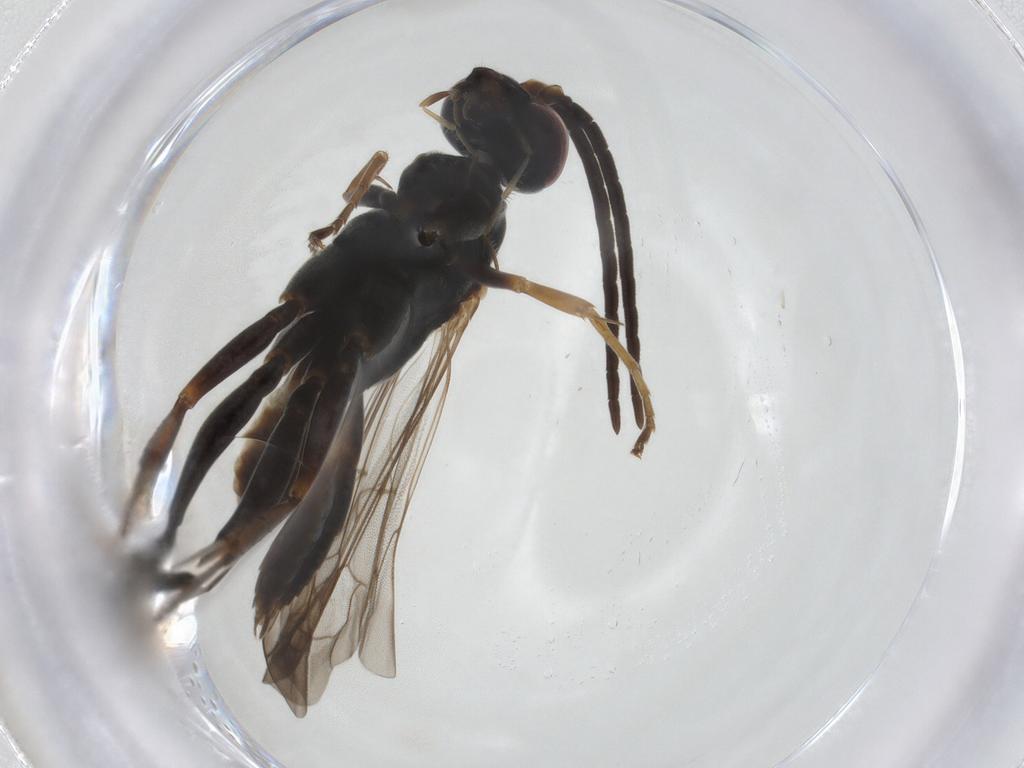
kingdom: Animalia
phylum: Arthropoda
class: Insecta
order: Hymenoptera
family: Pompilidae
